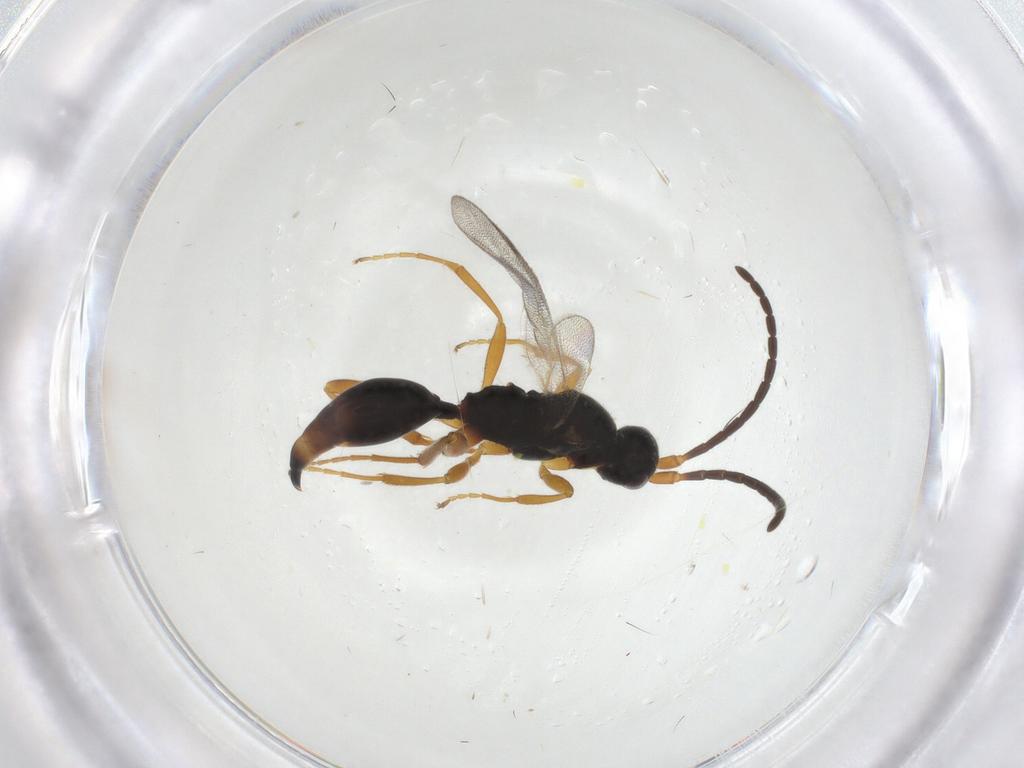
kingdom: Animalia
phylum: Arthropoda
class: Insecta
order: Hymenoptera
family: Proctotrupidae
